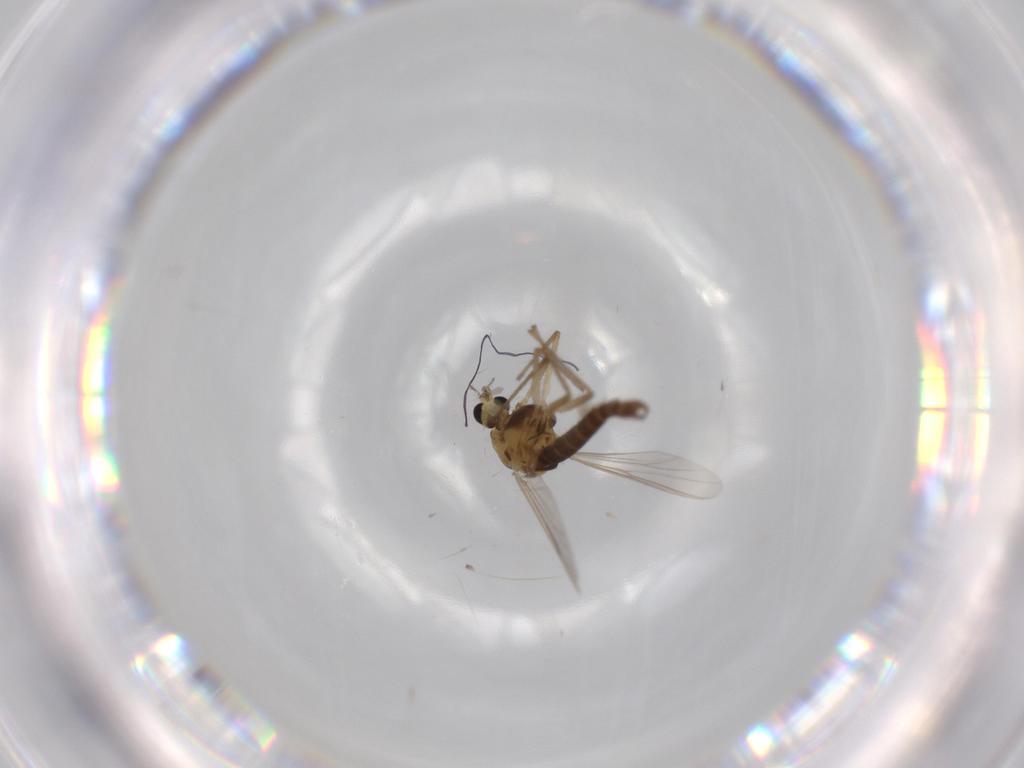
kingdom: Animalia
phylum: Arthropoda
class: Insecta
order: Diptera
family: Chironomidae
